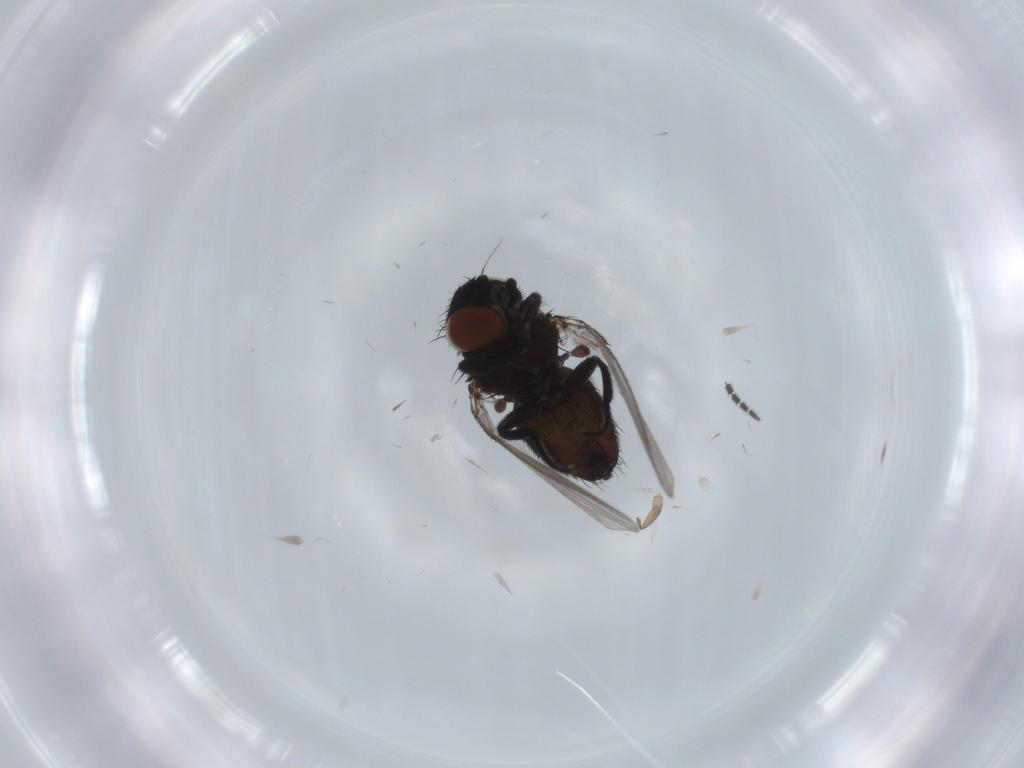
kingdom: Animalia
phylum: Arthropoda
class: Insecta
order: Diptera
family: Milichiidae
